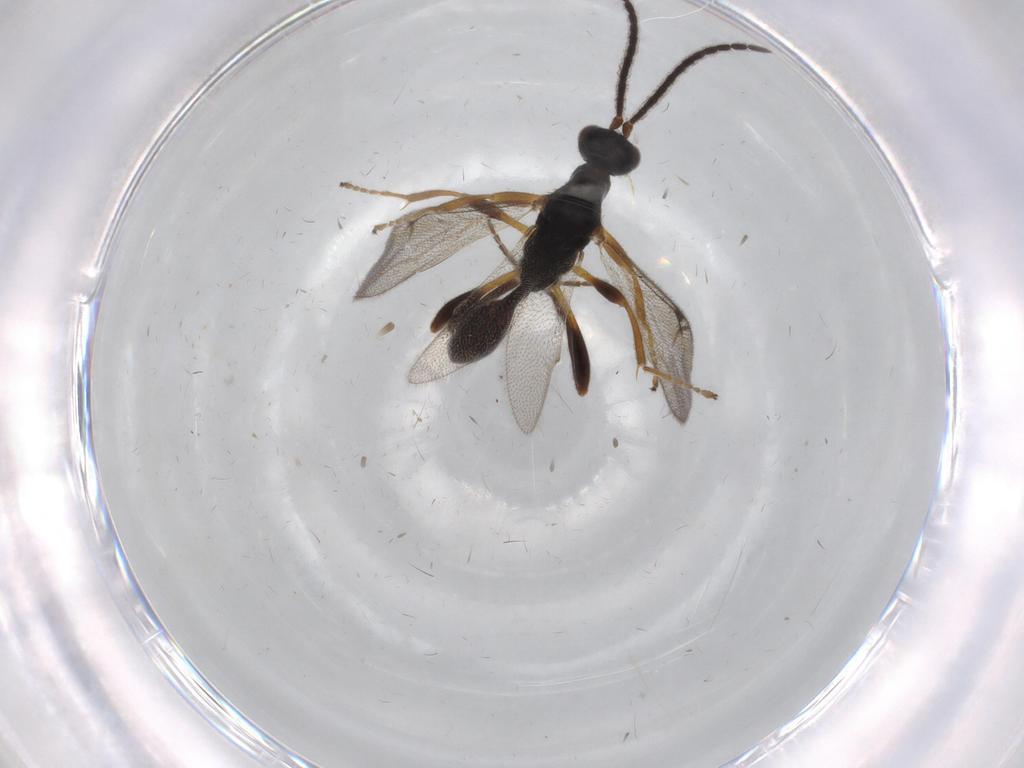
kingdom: Animalia
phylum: Arthropoda
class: Insecta
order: Hymenoptera
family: Proctotrupidae
